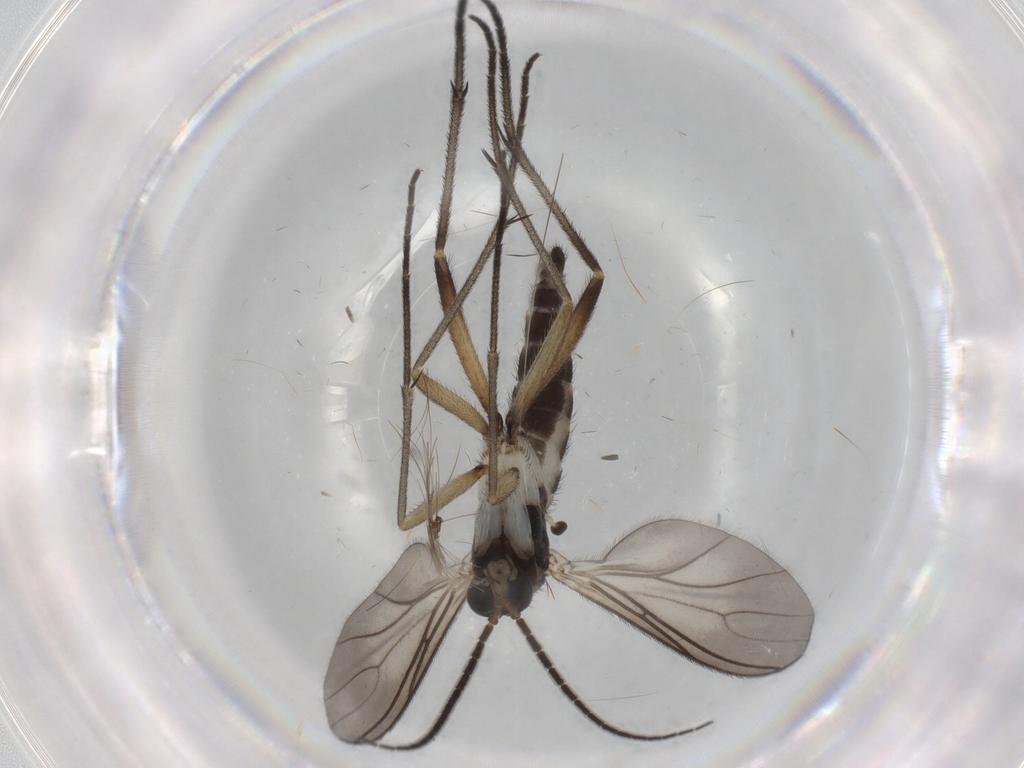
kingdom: Animalia
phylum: Arthropoda
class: Insecta
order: Diptera
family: Sciaridae
